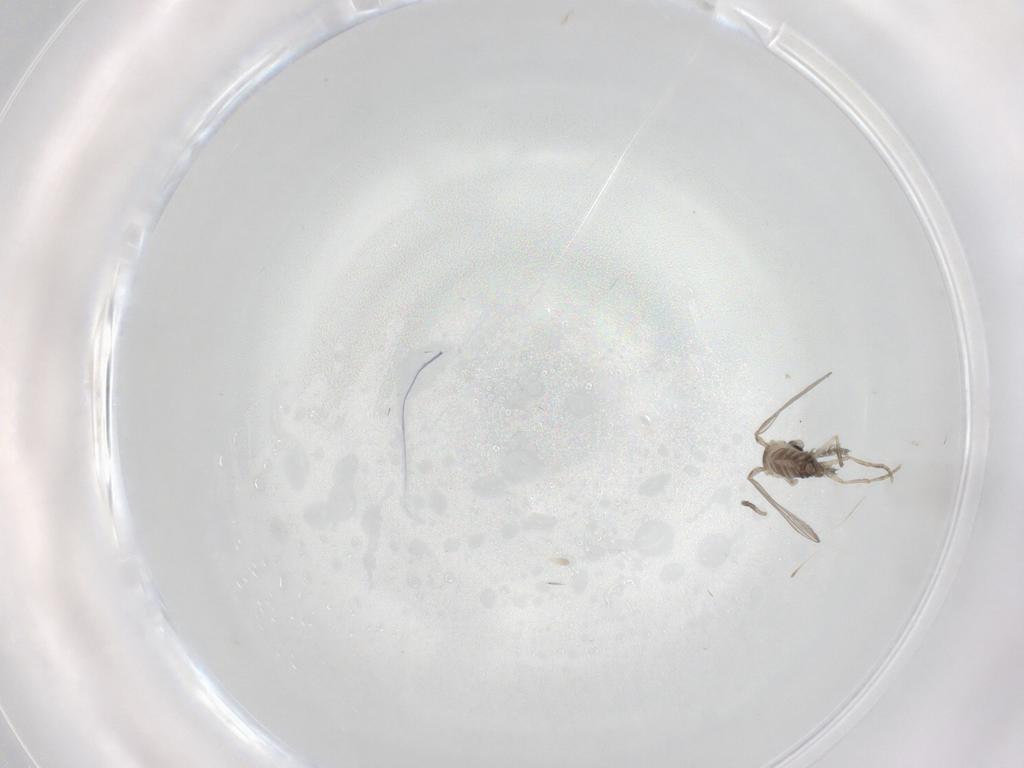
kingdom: Animalia
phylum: Arthropoda
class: Insecta
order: Diptera
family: Psychodidae
